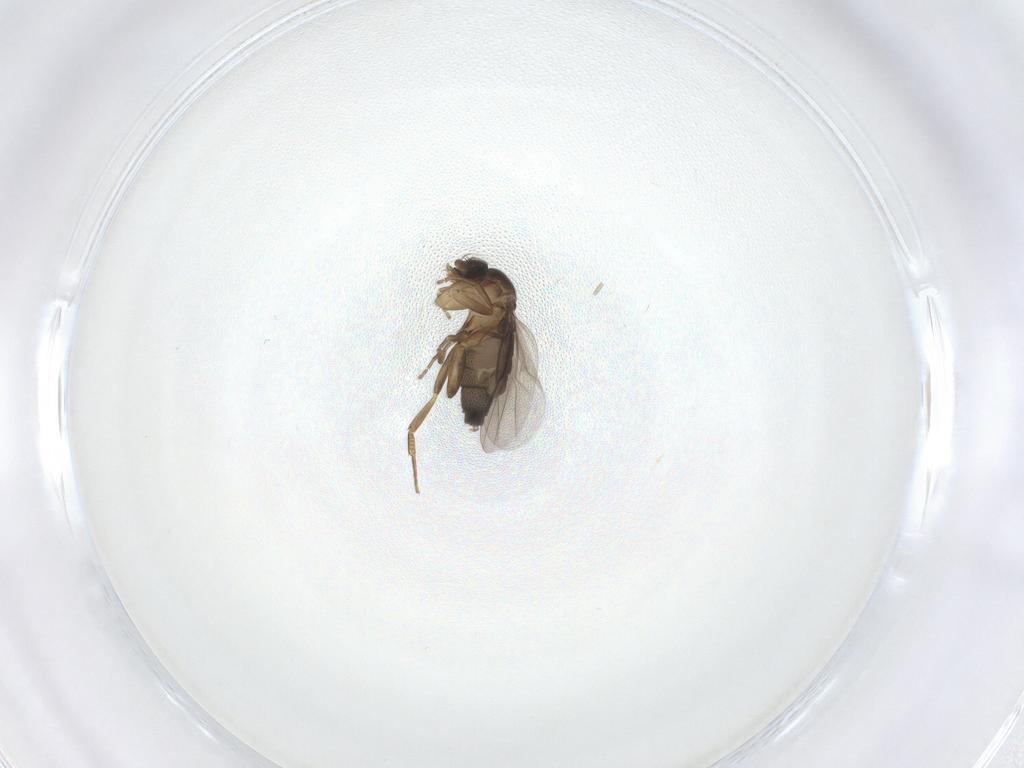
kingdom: Animalia
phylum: Arthropoda
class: Insecta
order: Diptera
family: Phoridae
